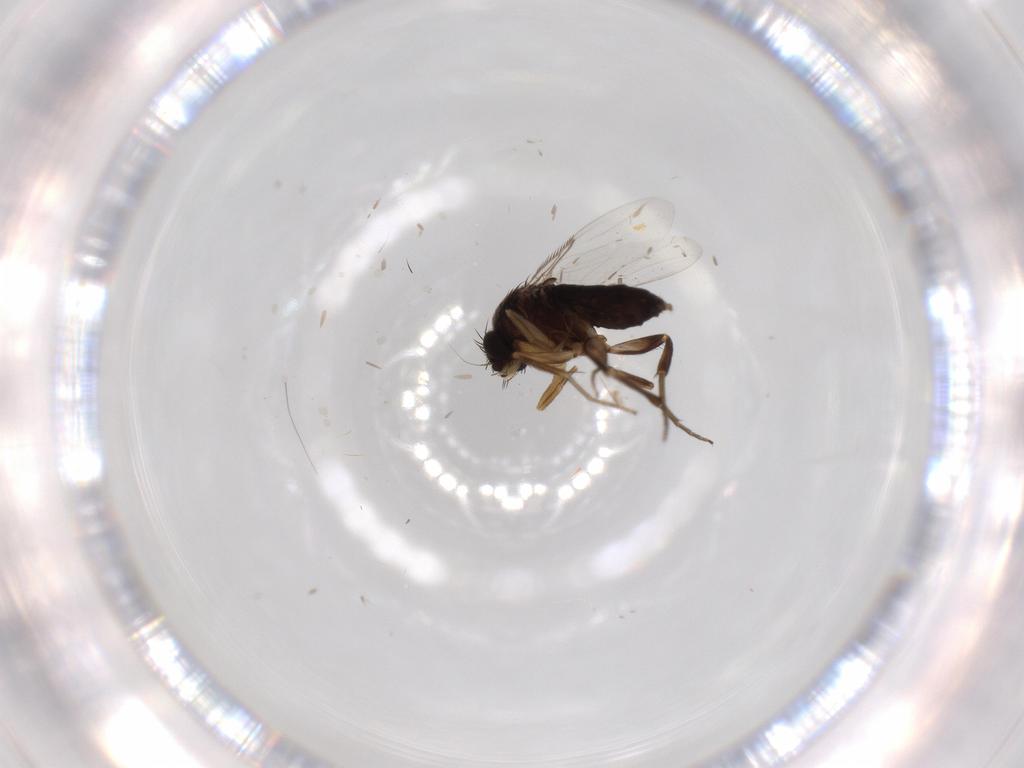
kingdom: Animalia
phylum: Arthropoda
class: Insecta
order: Diptera
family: Phoridae
